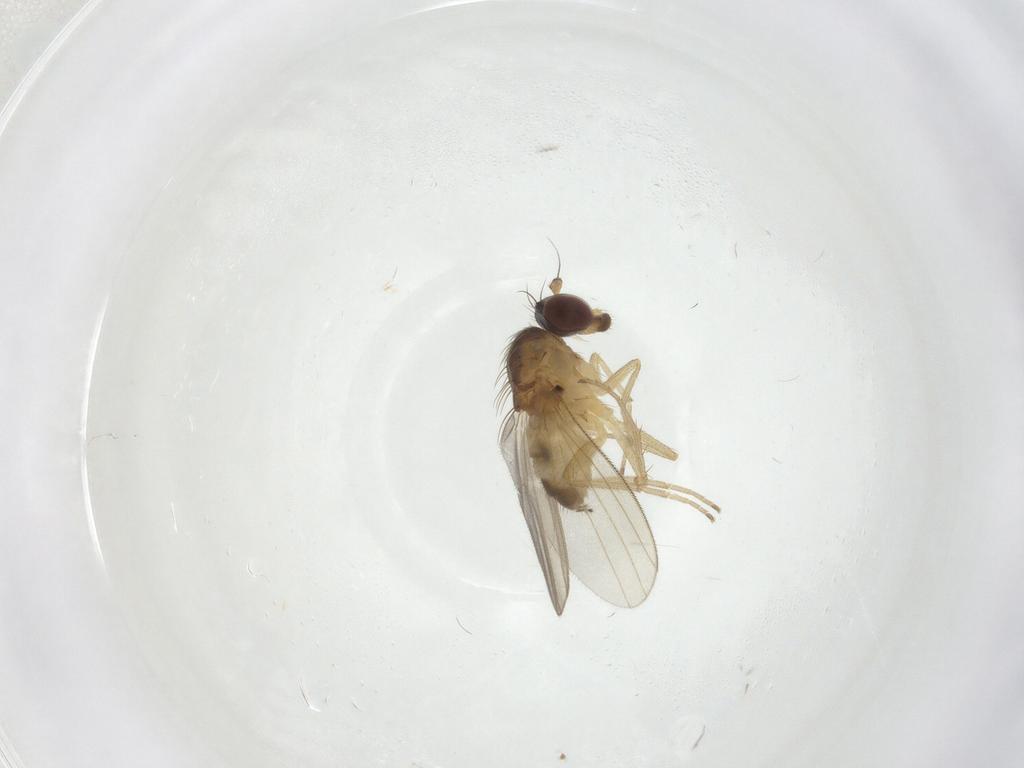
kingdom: Animalia
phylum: Arthropoda
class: Insecta
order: Diptera
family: Dolichopodidae
